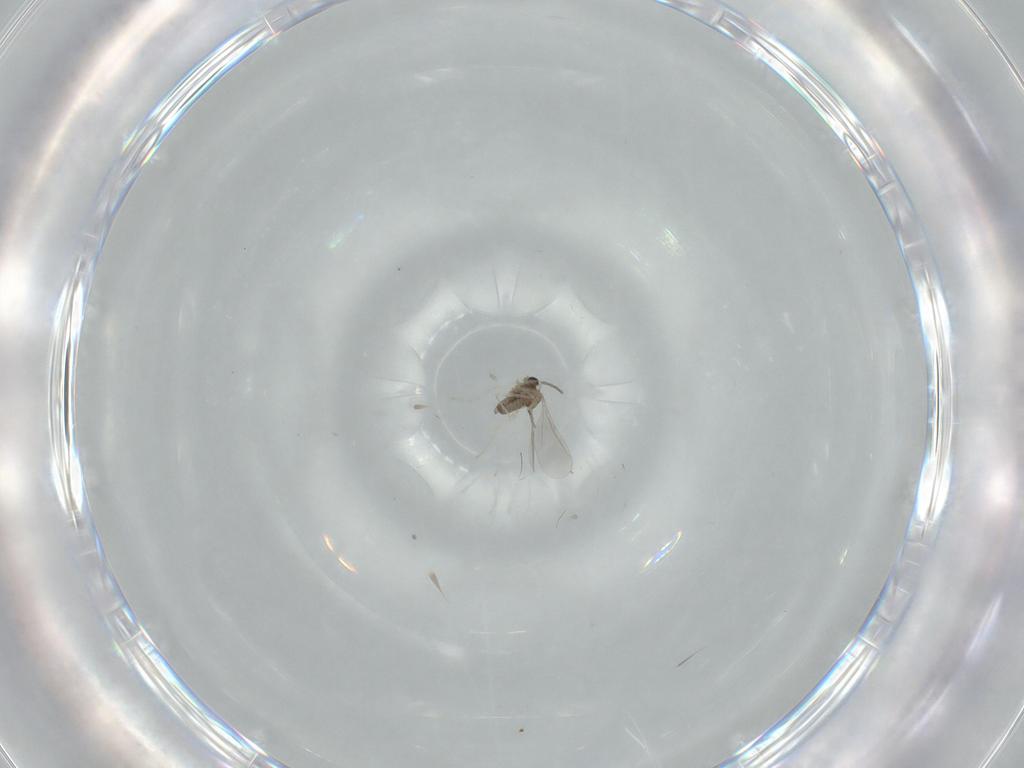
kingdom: Animalia
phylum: Arthropoda
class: Insecta
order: Diptera
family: Cecidomyiidae
